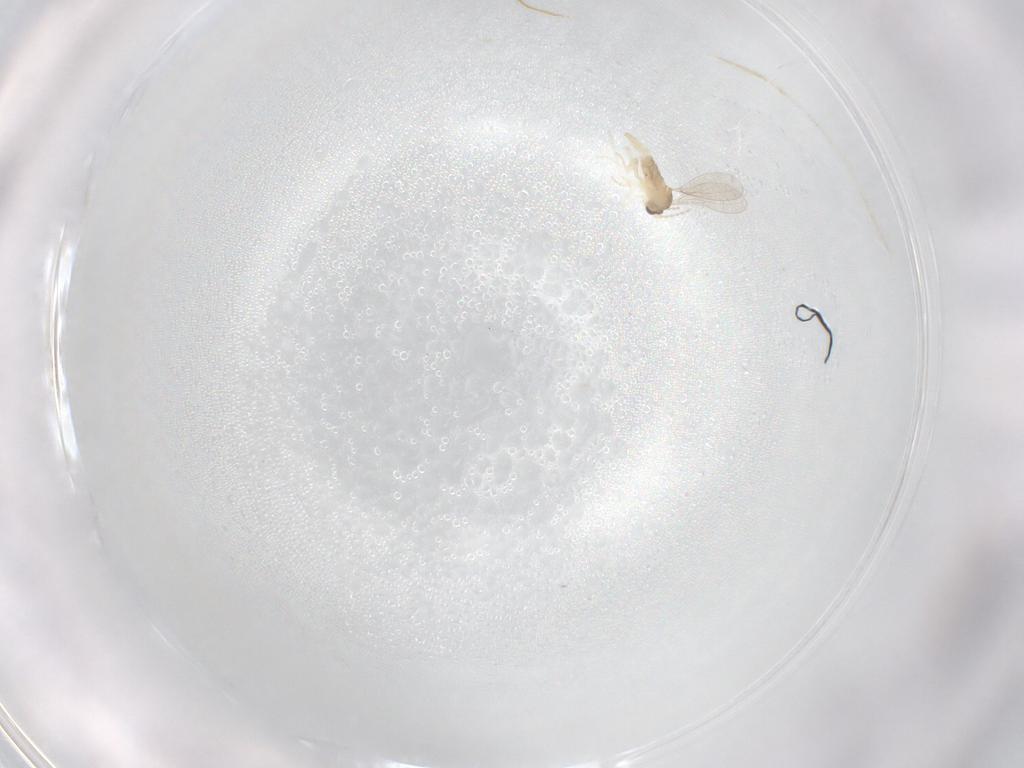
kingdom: Animalia
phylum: Arthropoda
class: Insecta
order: Diptera
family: Cecidomyiidae
